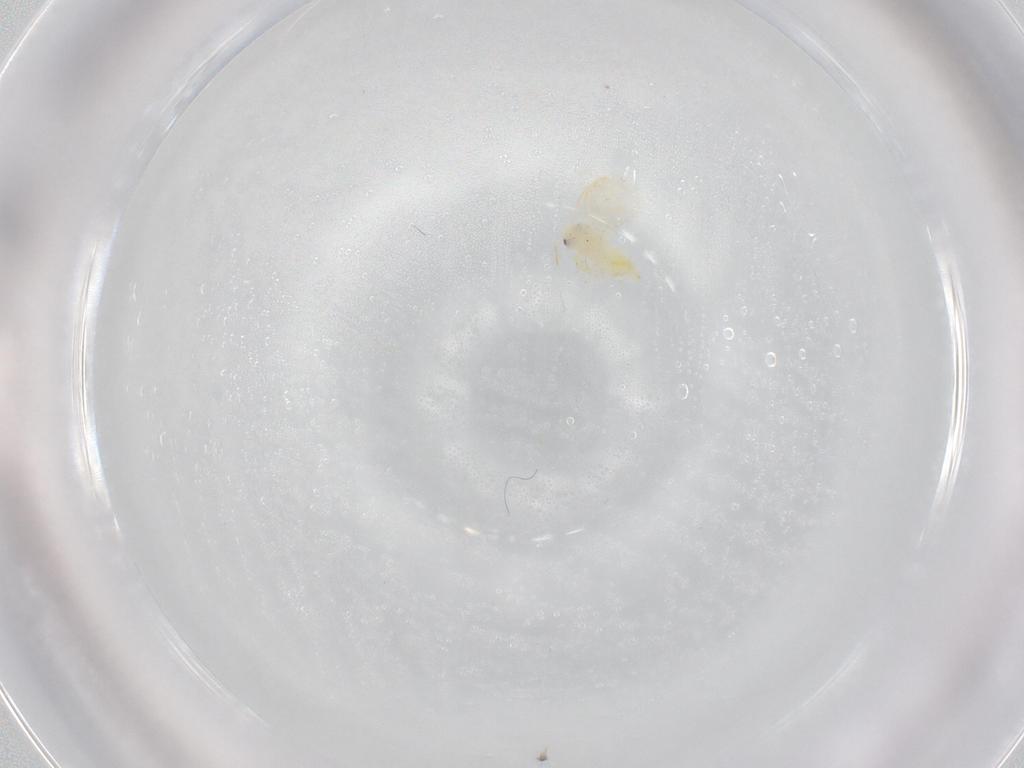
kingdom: Animalia
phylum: Arthropoda
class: Insecta
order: Hemiptera
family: Aleyrodidae
